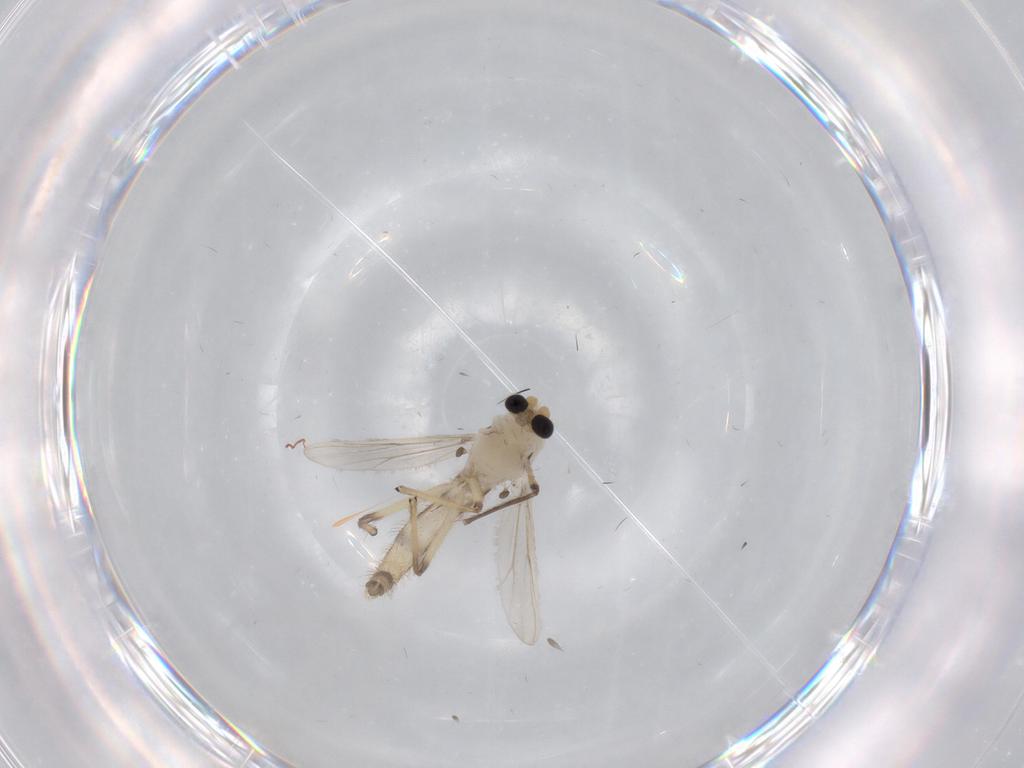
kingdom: Animalia
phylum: Arthropoda
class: Insecta
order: Diptera
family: Chironomidae
